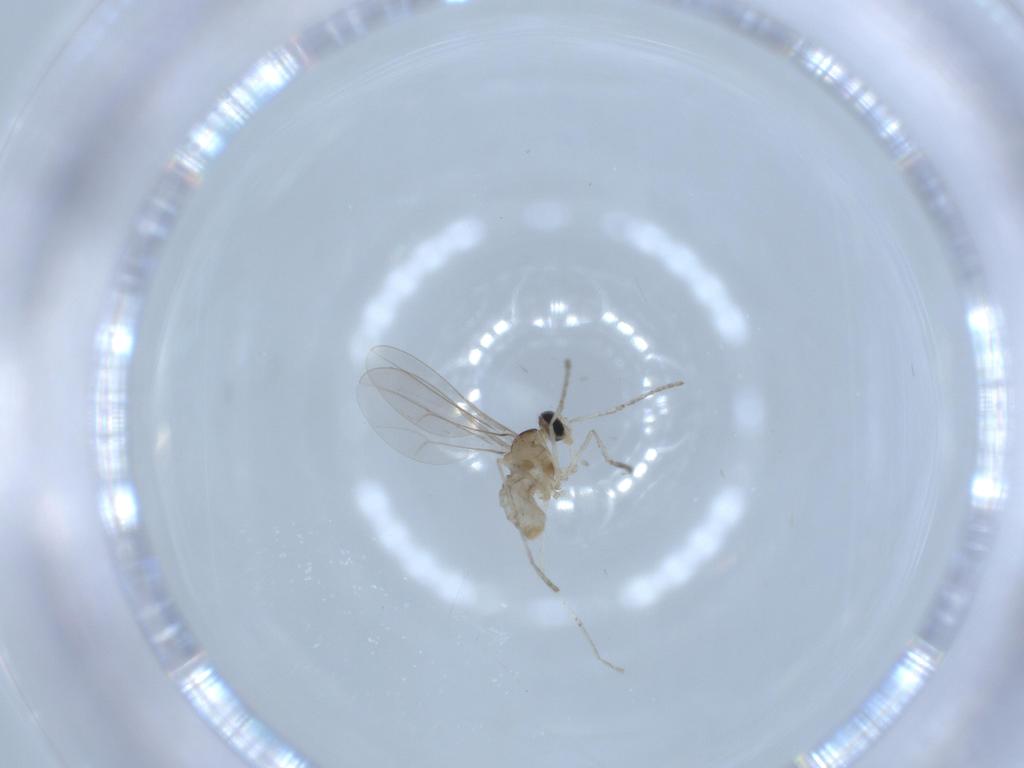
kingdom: Animalia
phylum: Arthropoda
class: Insecta
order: Diptera
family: Cecidomyiidae
